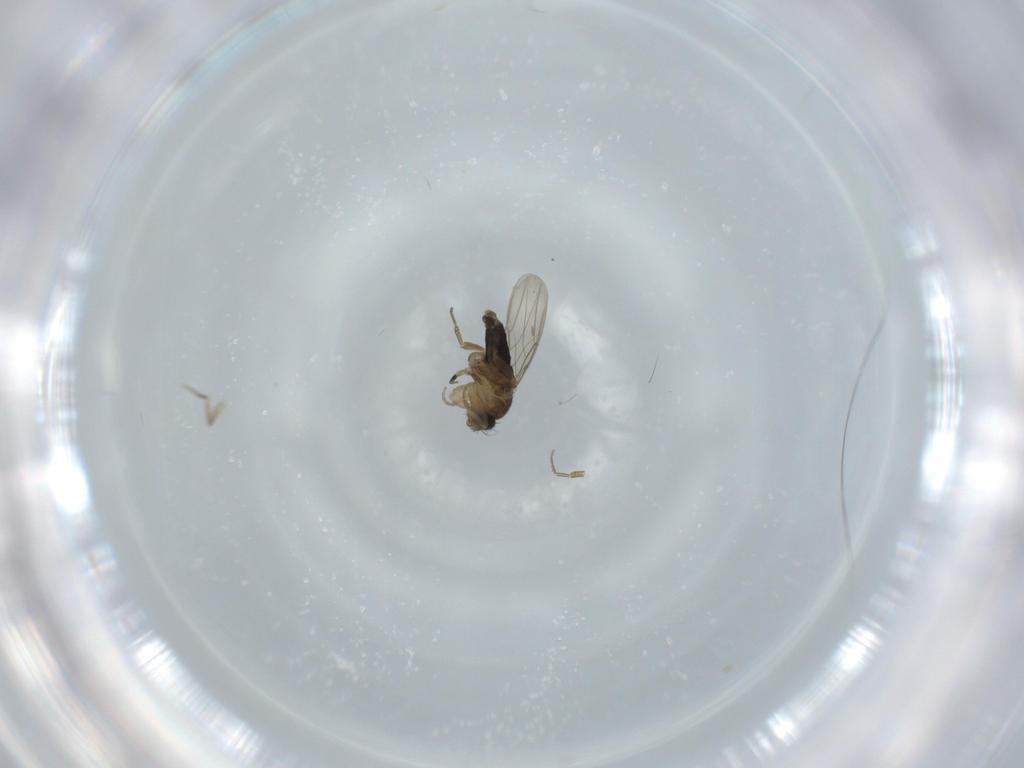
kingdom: Animalia
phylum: Arthropoda
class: Insecta
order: Diptera
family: Phoridae
